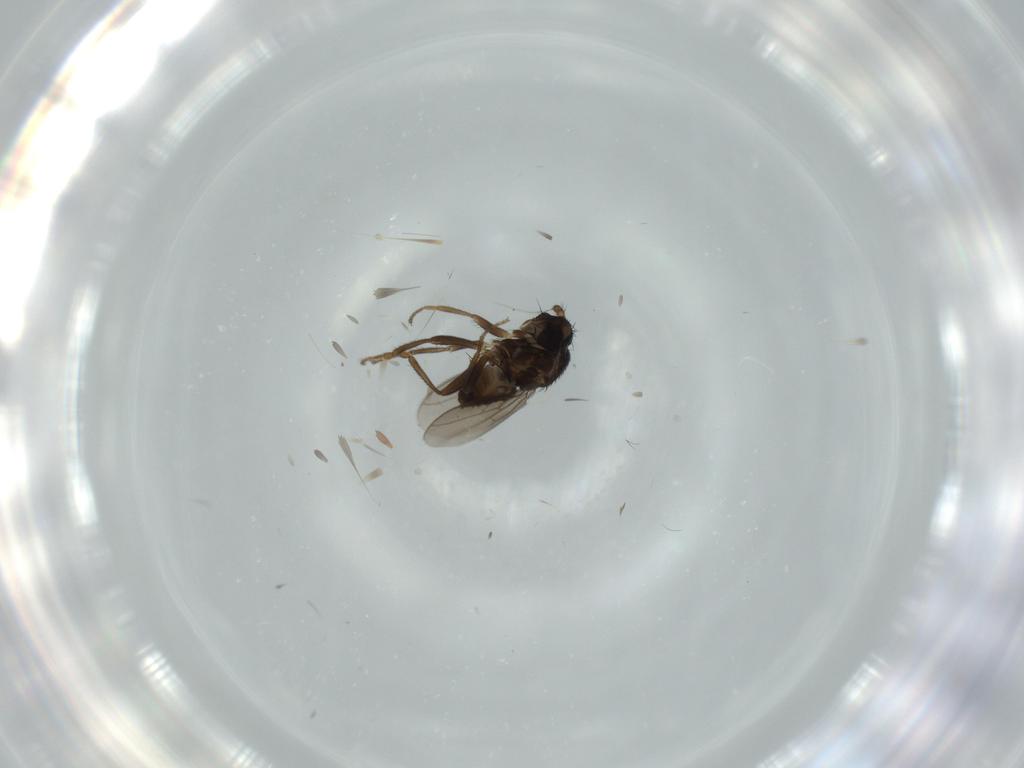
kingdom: Animalia
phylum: Arthropoda
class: Insecta
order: Diptera
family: Sphaeroceridae
